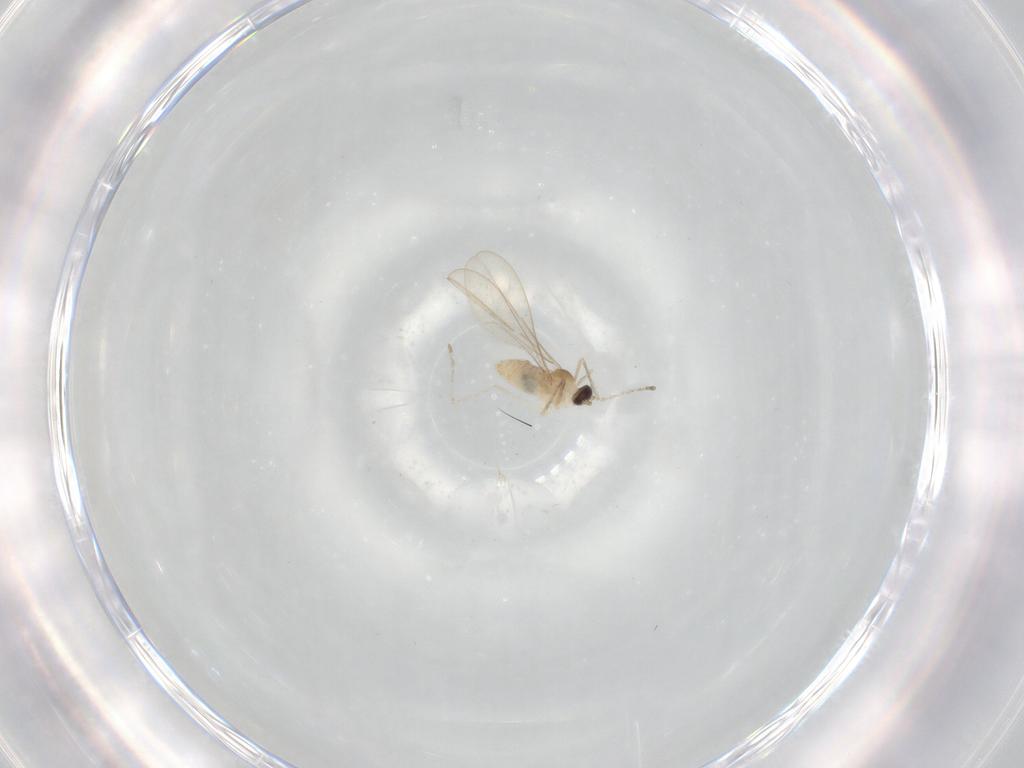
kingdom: Animalia
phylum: Arthropoda
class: Insecta
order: Diptera
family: Cecidomyiidae
